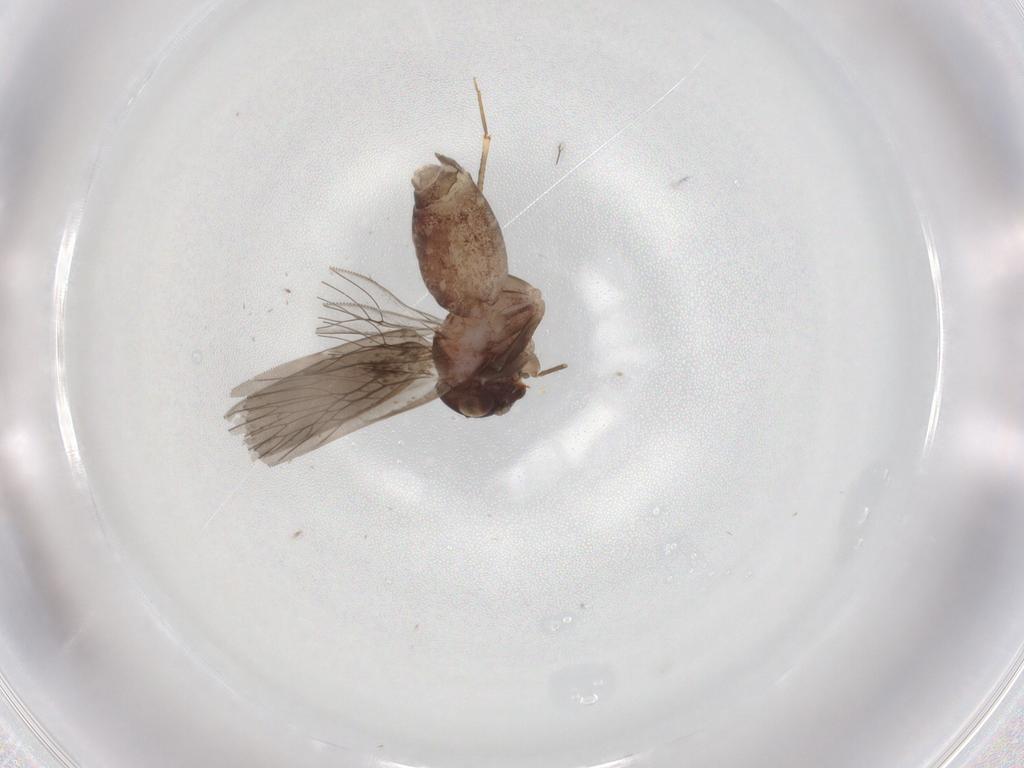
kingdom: Animalia
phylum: Arthropoda
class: Insecta
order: Psocodea
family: Lepidopsocidae
